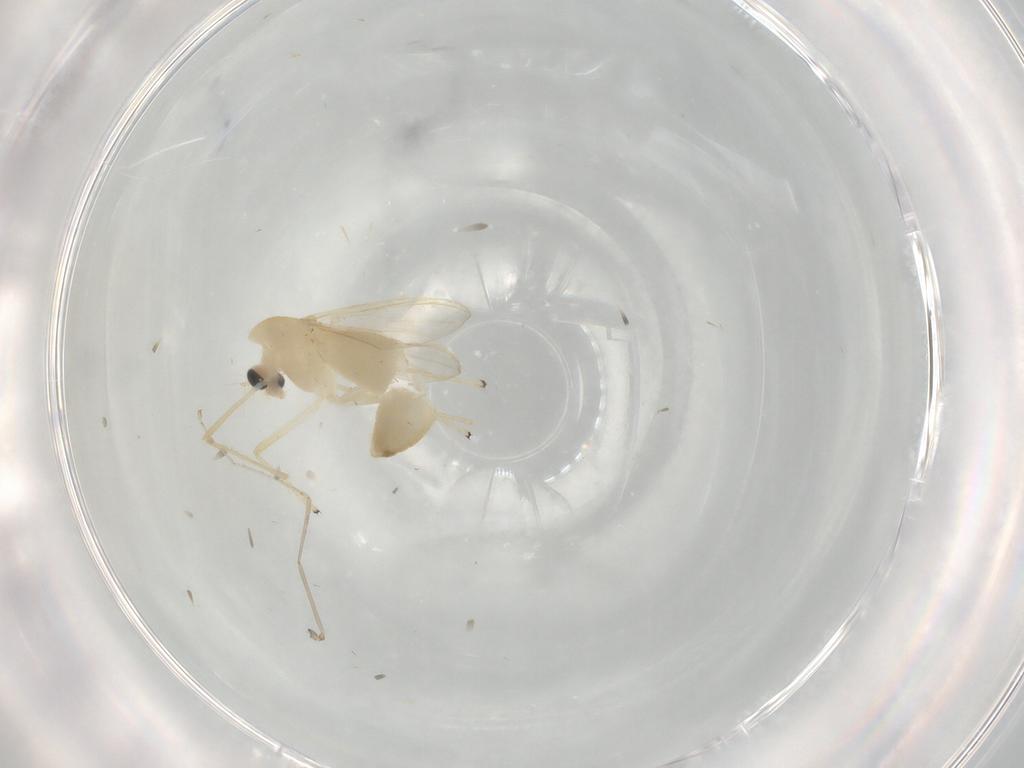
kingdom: Animalia
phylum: Arthropoda
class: Insecta
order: Diptera
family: Chironomidae
